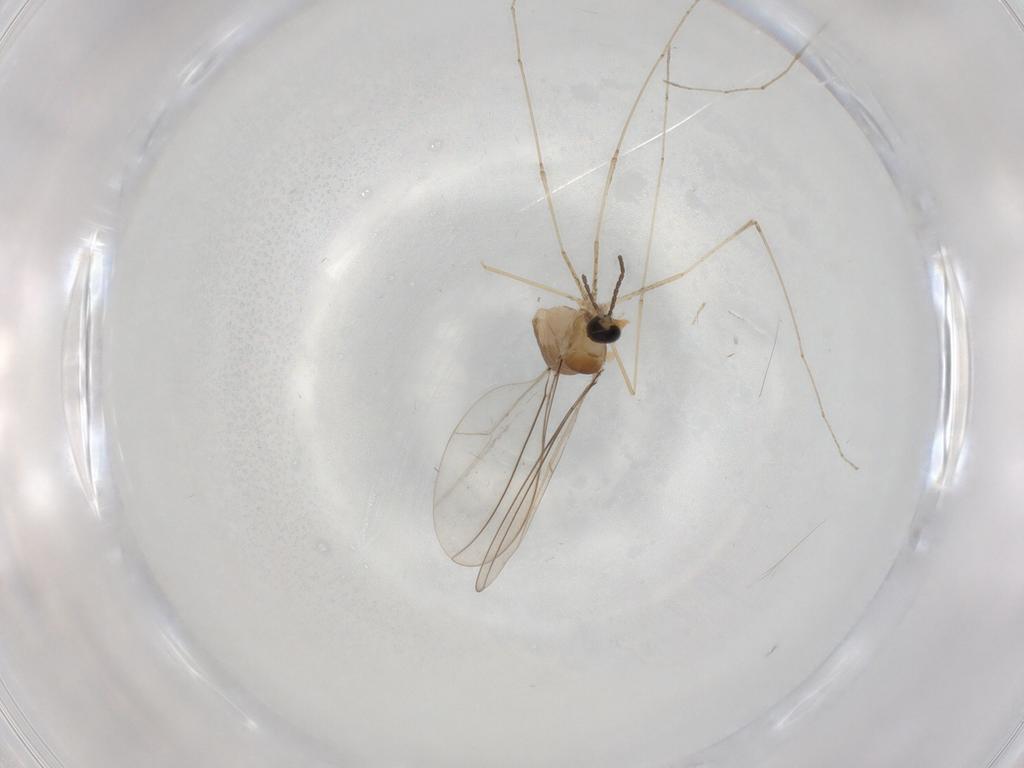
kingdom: Animalia
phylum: Arthropoda
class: Insecta
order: Diptera
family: Cecidomyiidae
